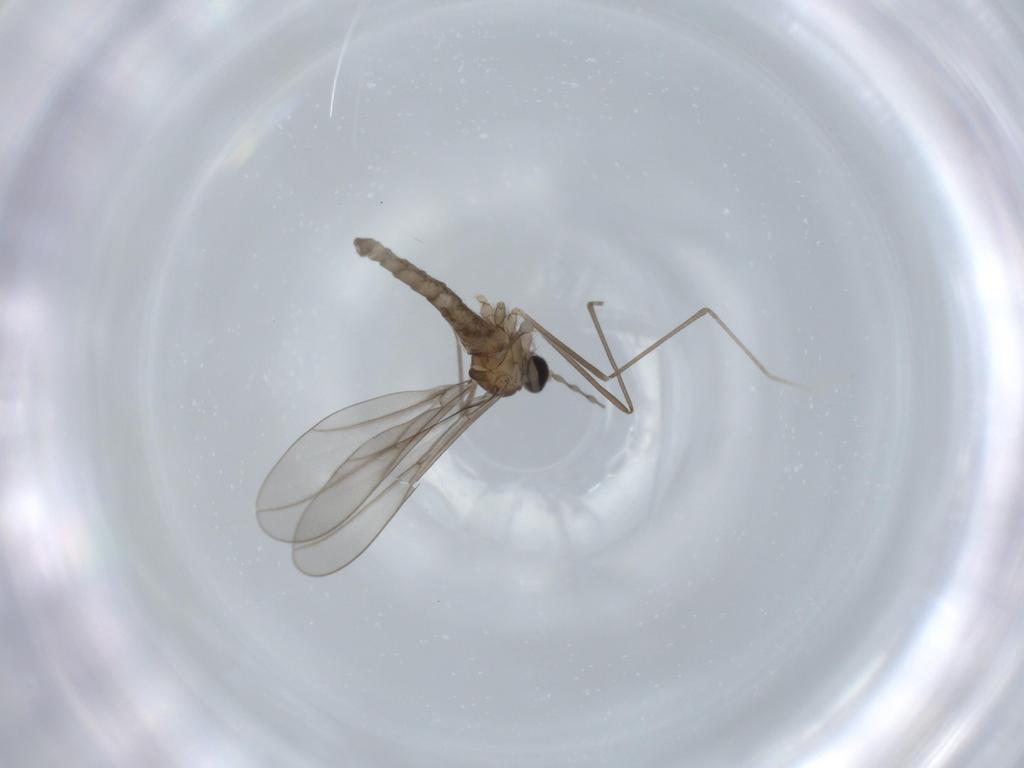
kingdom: Animalia
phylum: Arthropoda
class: Insecta
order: Diptera
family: Cecidomyiidae
